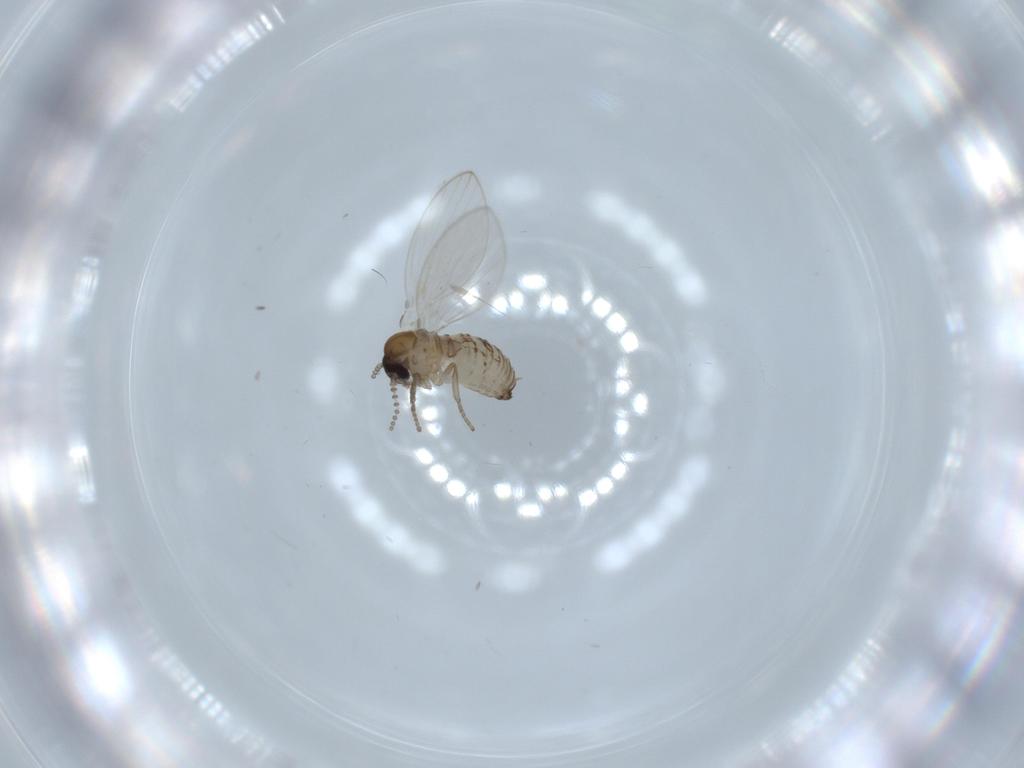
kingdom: Animalia
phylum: Arthropoda
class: Insecta
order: Diptera
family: Psychodidae
